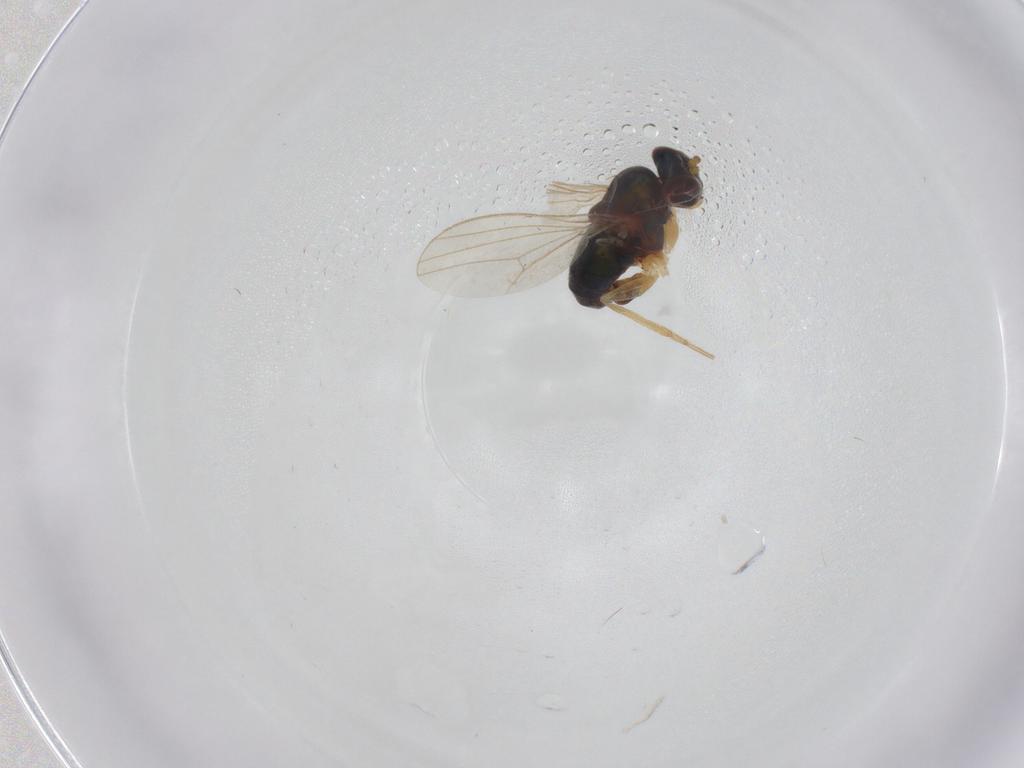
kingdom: Animalia
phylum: Arthropoda
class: Insecta
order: Diptera
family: Dolichopodidae
